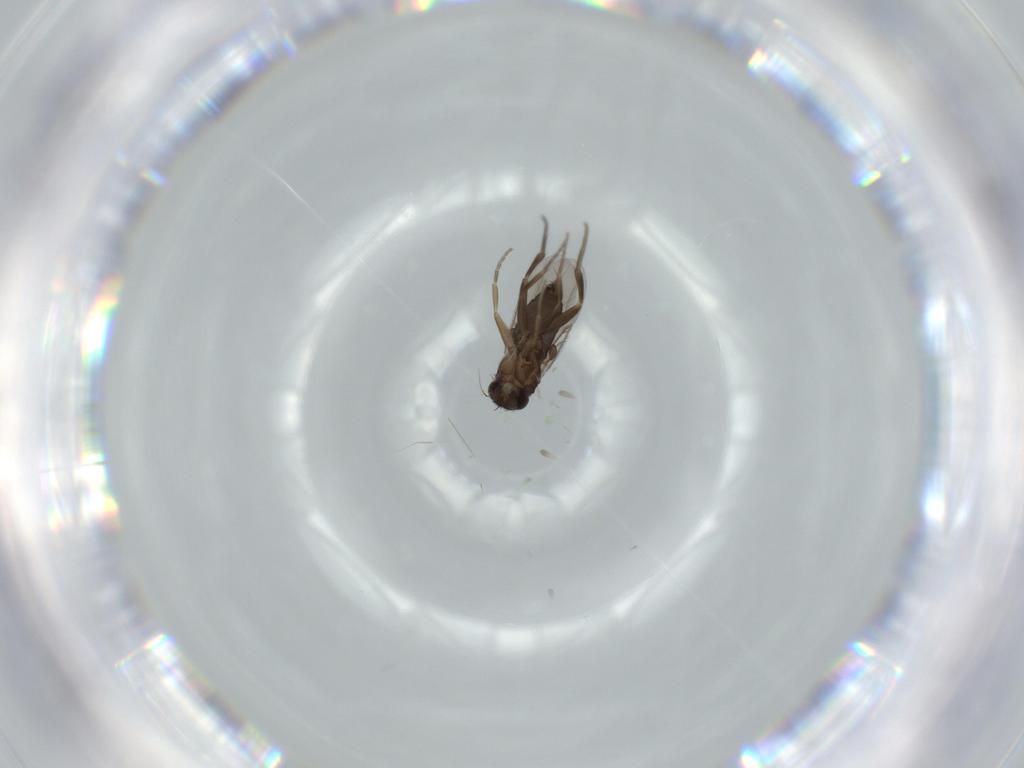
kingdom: Animalia
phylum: Arthropoda
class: Insecta
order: Diptera
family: Phoridae
